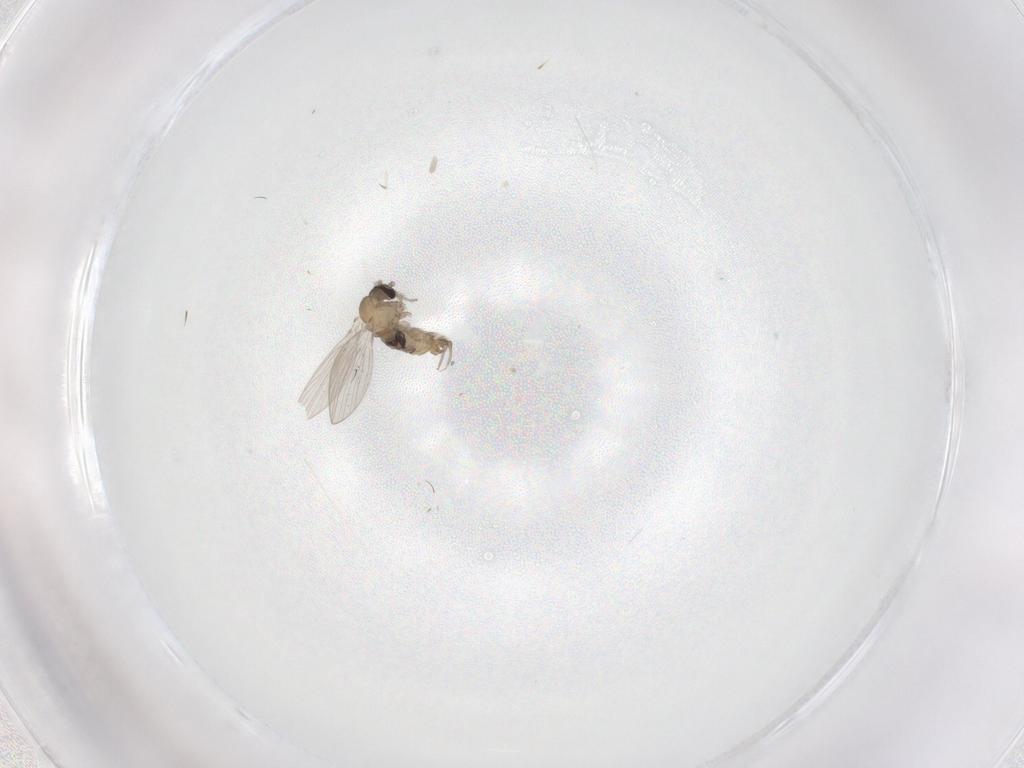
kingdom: Animalia
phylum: Arthropoda
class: Insecta
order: Diptera
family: Psychodidae
